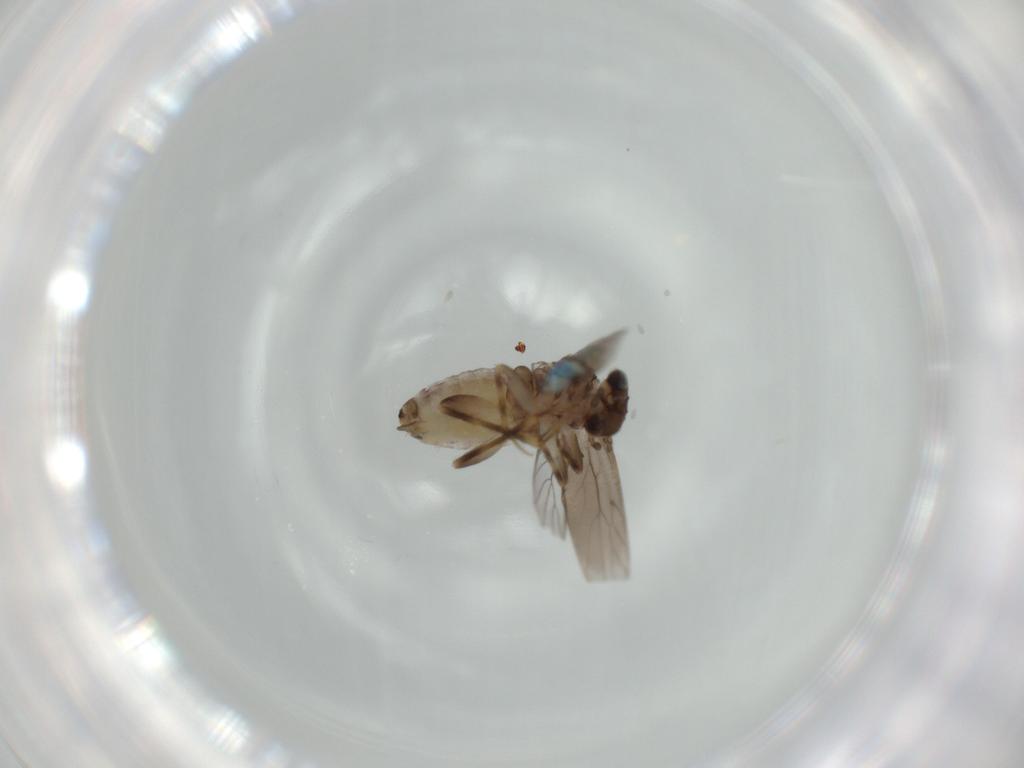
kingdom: Animalia
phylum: Arthropoda
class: Insecta
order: Psocodea
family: Lepidopsocidae
